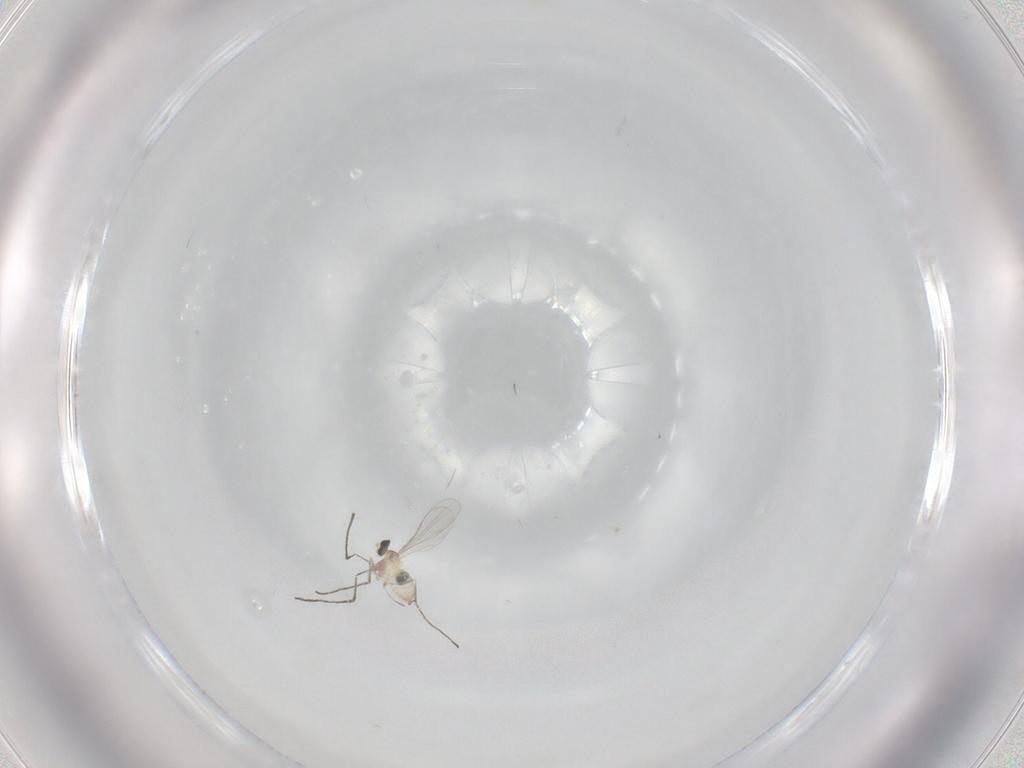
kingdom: Animalia
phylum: Arthropoda
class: Insecta
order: Diptera
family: Cecidomyiidae
